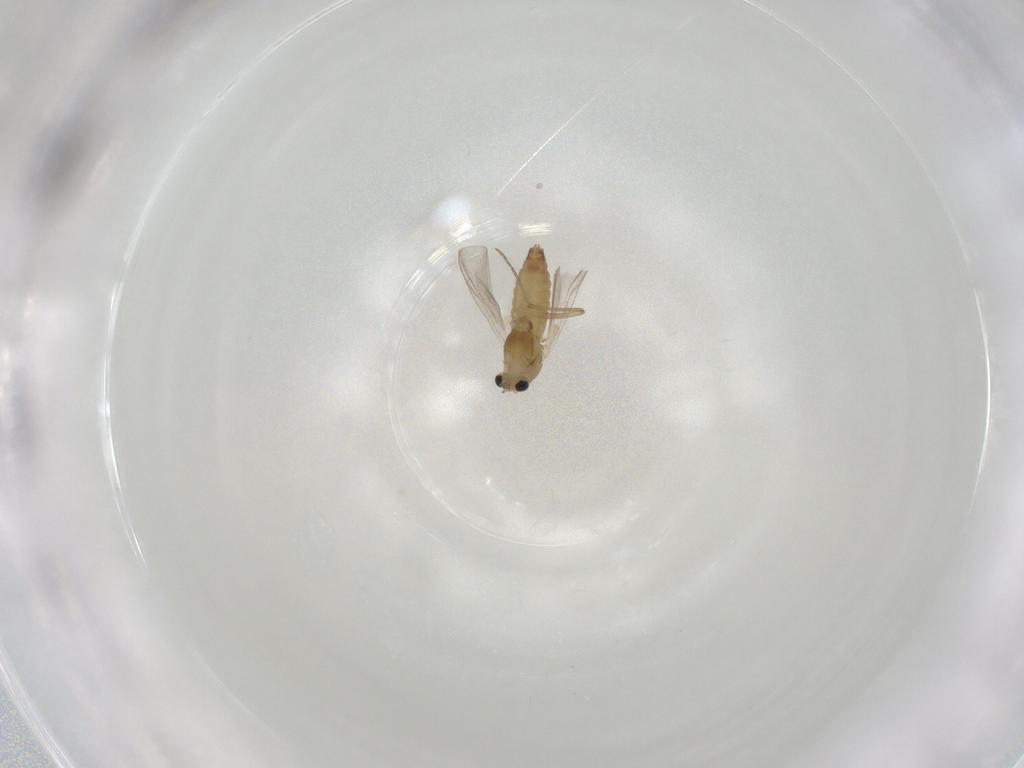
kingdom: Animalia
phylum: Arthropoda
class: Insecta
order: Diptera
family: Chironomidae
